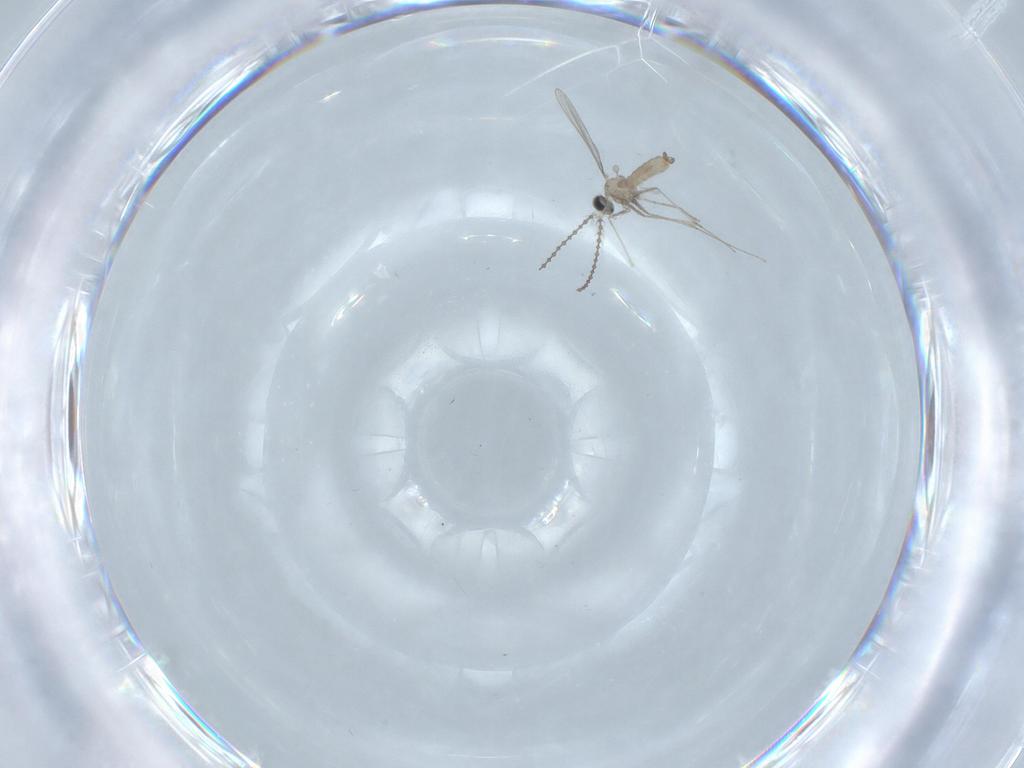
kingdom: Animalia
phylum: Arthropoda
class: Insecta
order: Diptera
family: Cecidomyiidae
